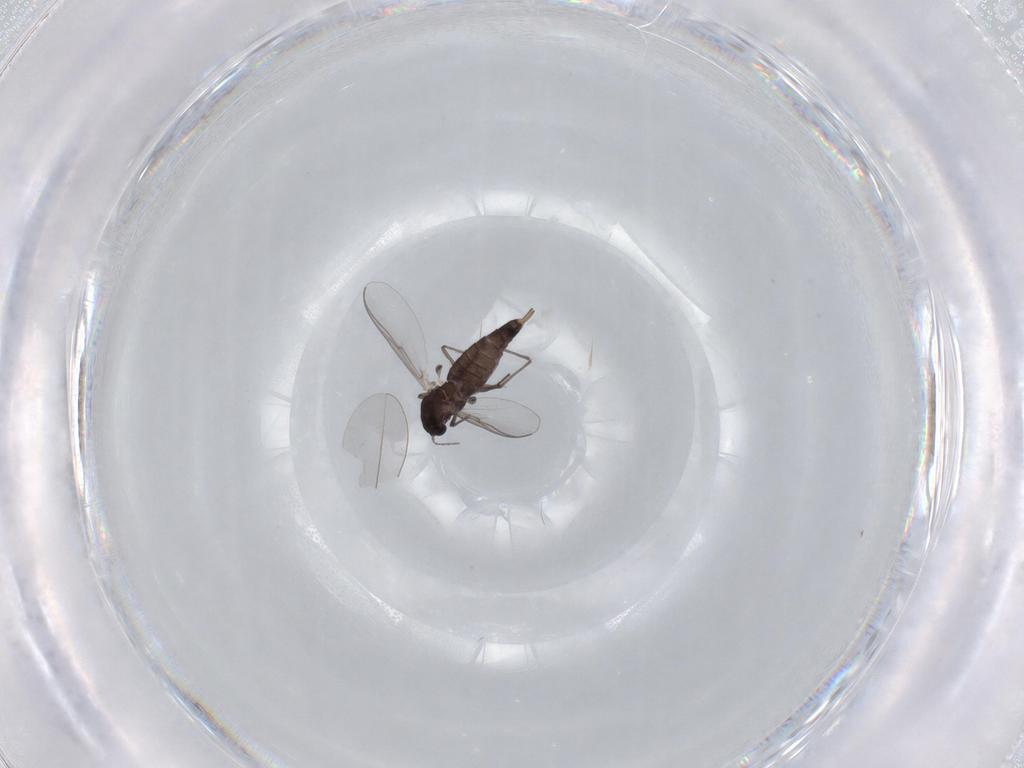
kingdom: Animalia
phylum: Arthropoda
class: Insecta
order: Diptera
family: Chironomidae
